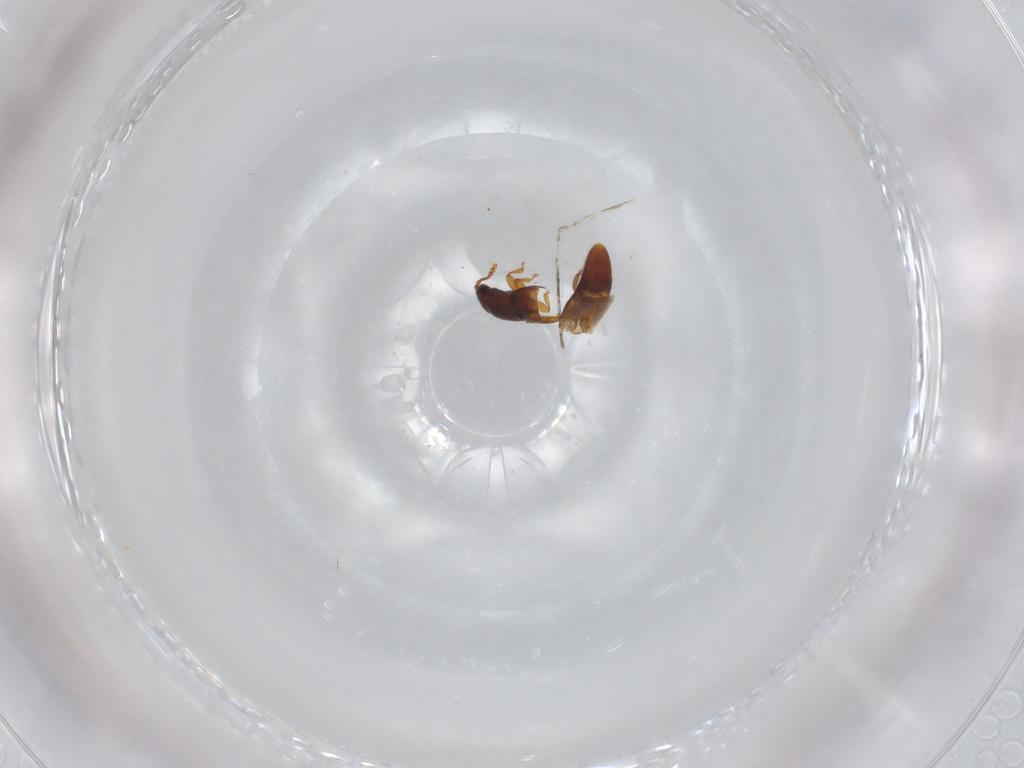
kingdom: Animalia
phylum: Arthropoda
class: Insecta
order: Coleoptera
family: Smicripidae
